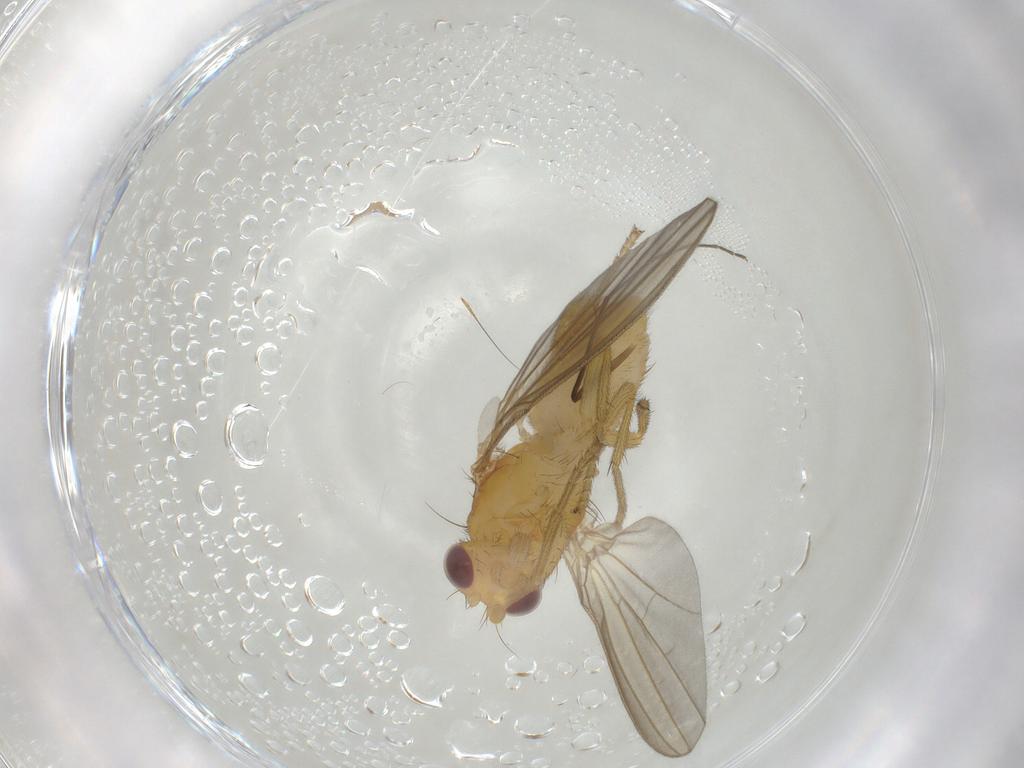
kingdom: Animalia
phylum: Arthropoda
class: Insecta
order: Diptera
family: Natalimyzidae
